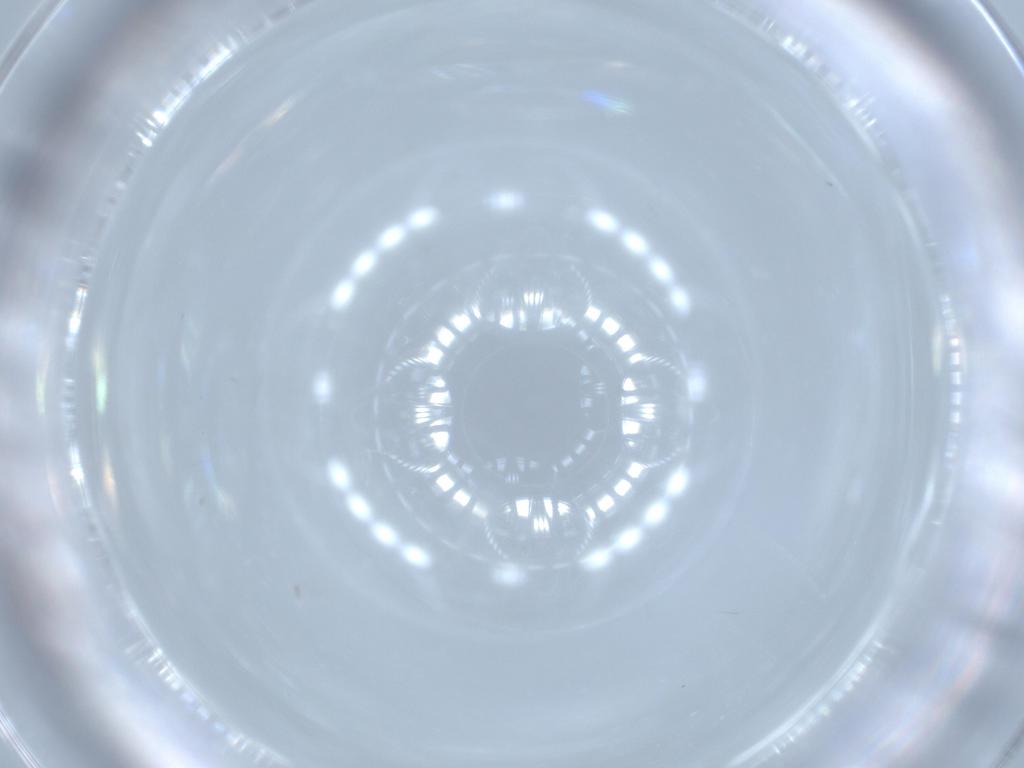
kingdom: Animalia
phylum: Arthropoda
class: Insecta
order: Diptera
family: Hybotidae
